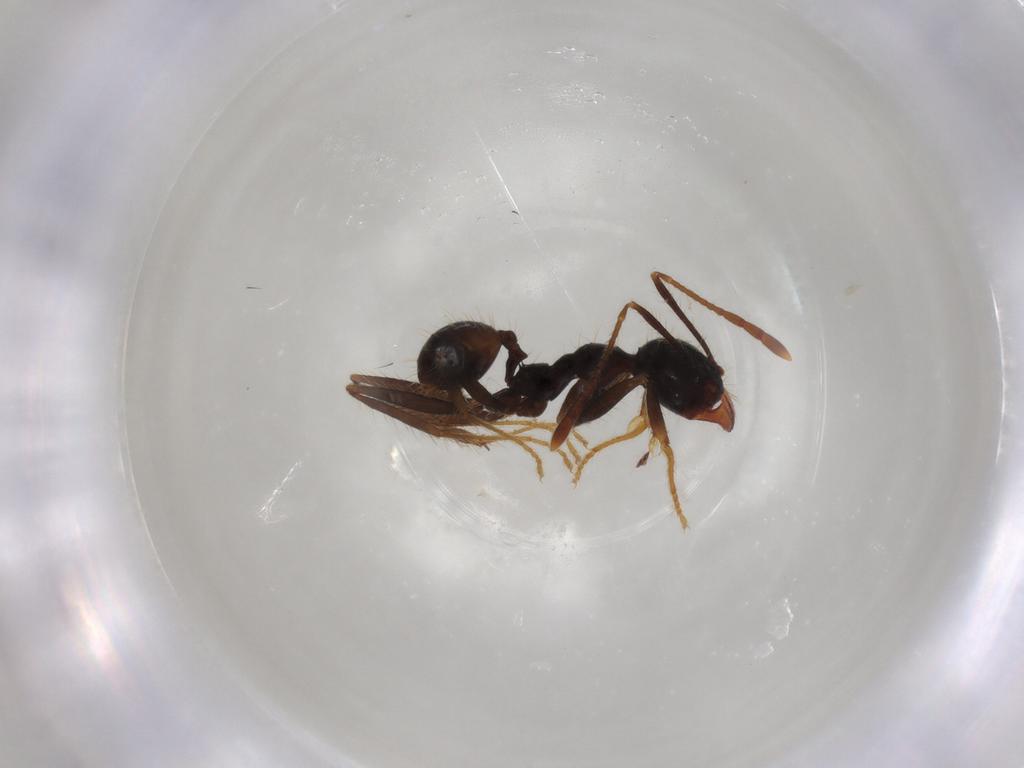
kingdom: Animalia
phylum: Arthropoda
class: Insecta
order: Hymenoptera
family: Formicidae
